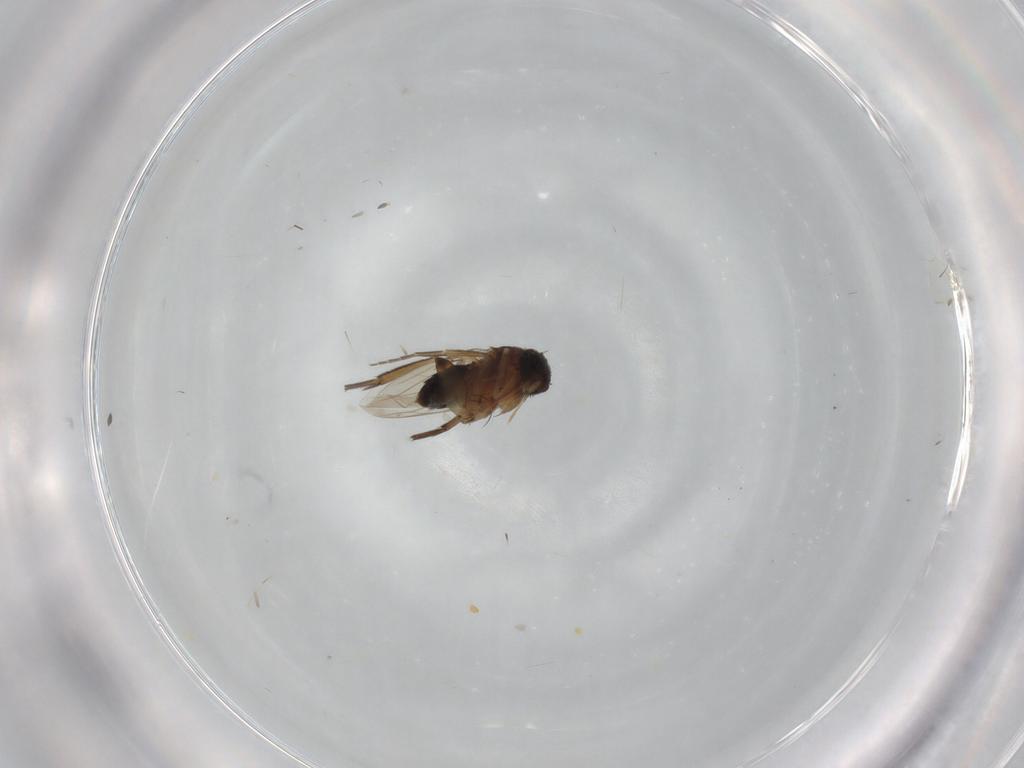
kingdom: Animalia
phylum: Arthropoda
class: Insecta
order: Diptera
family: Phoridae
